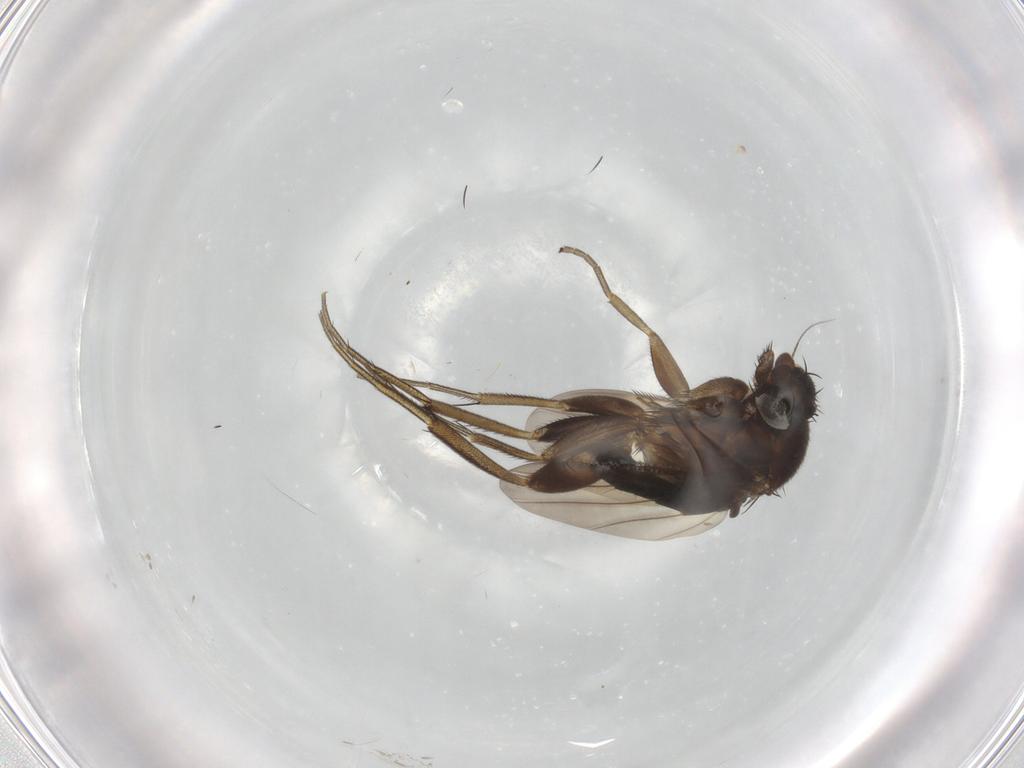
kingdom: Animalia
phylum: Arthropoda
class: Insecta
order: Diptera
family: Phoridae
